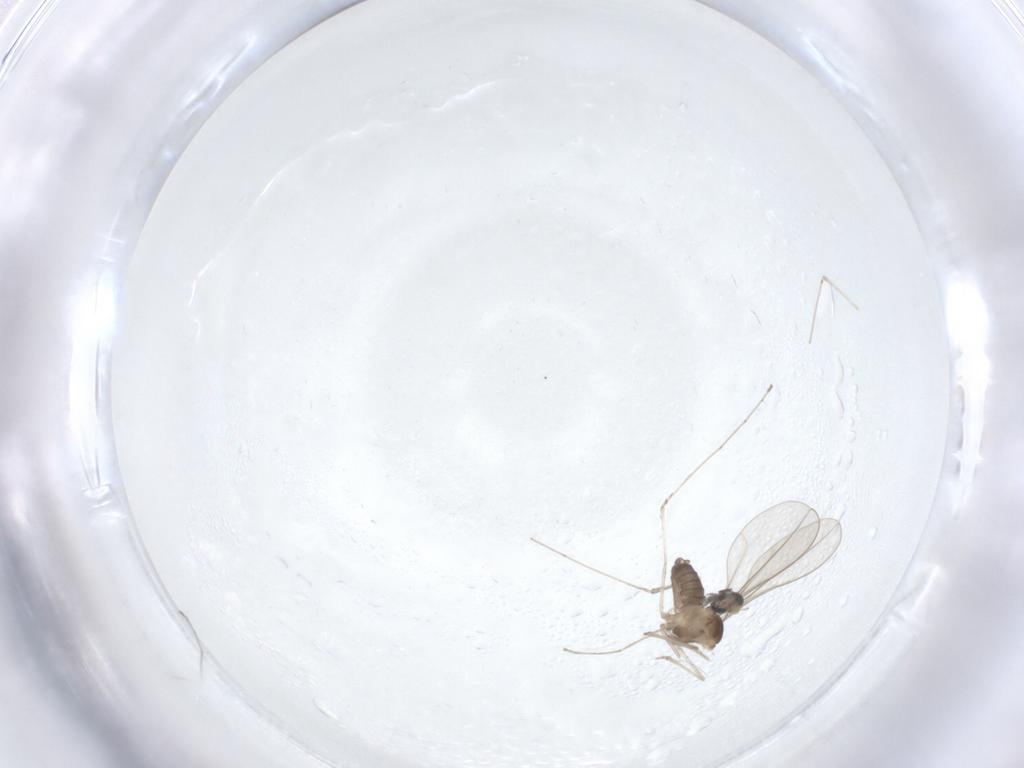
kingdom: Animalia
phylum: Arthropoda
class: Insecta
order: Diptera
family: Cecidomyiidae
